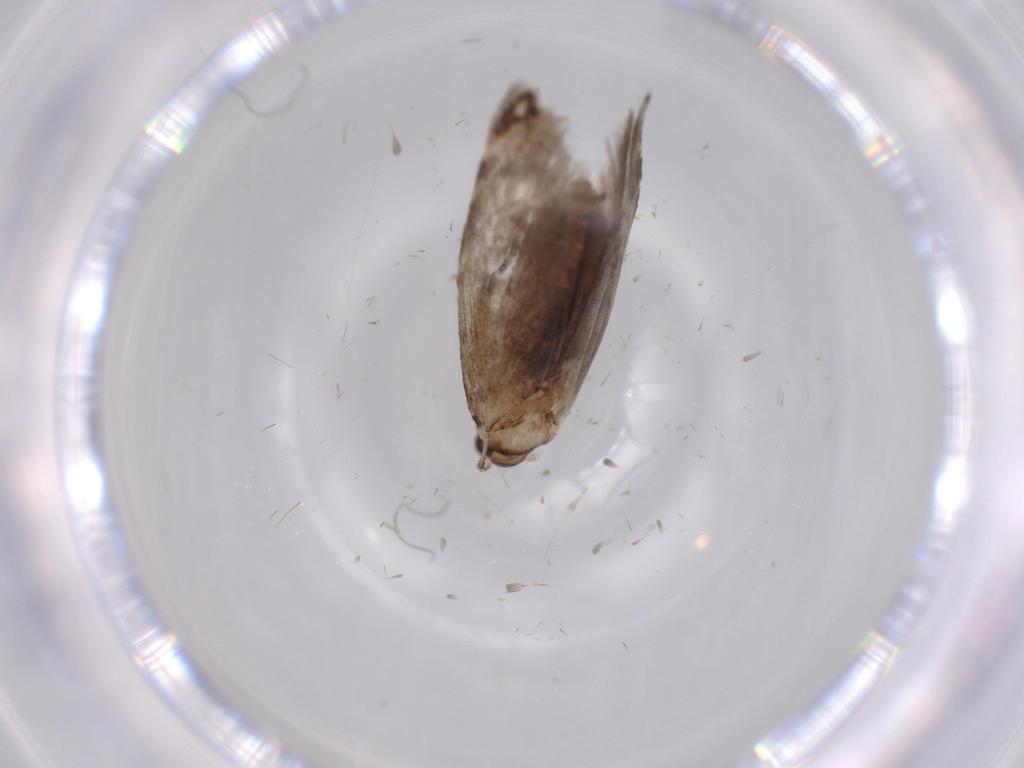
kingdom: Animalia
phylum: Arthropoda
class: Insecta
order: Lepidoptera
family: Tineidae
